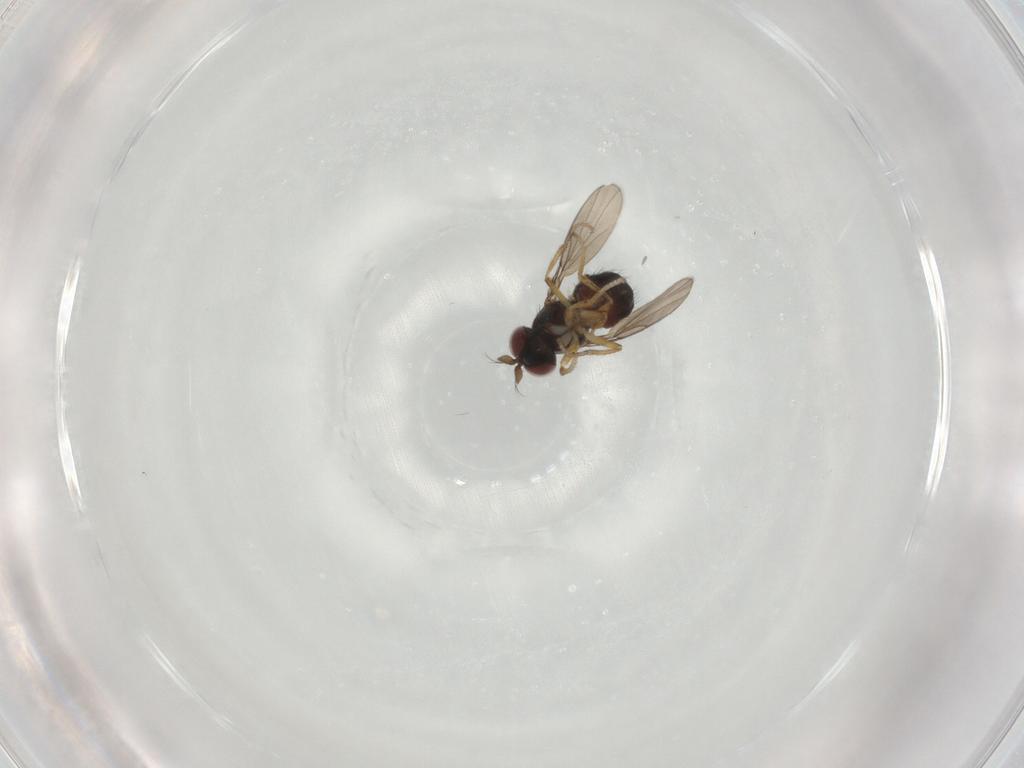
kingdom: Animalia
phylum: Arthropoda
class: Insecta
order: Diptera
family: Ephydridae
